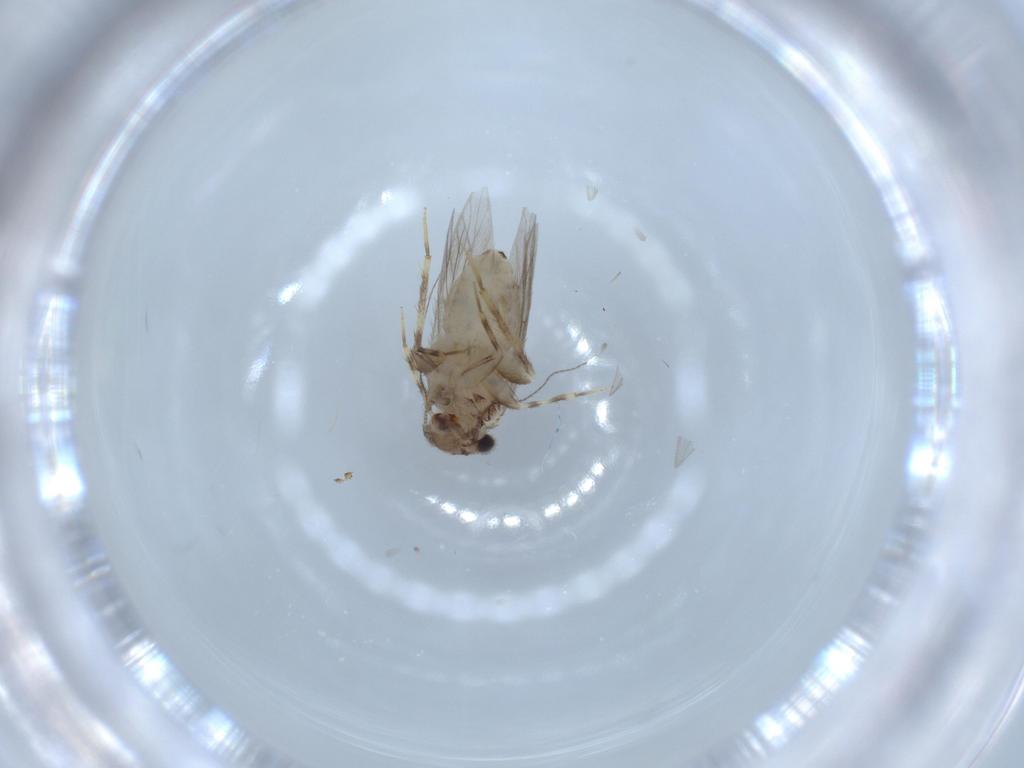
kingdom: Animalia
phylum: Arthropoda
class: Insecta
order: Psocodea
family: Lepidopsocidae
